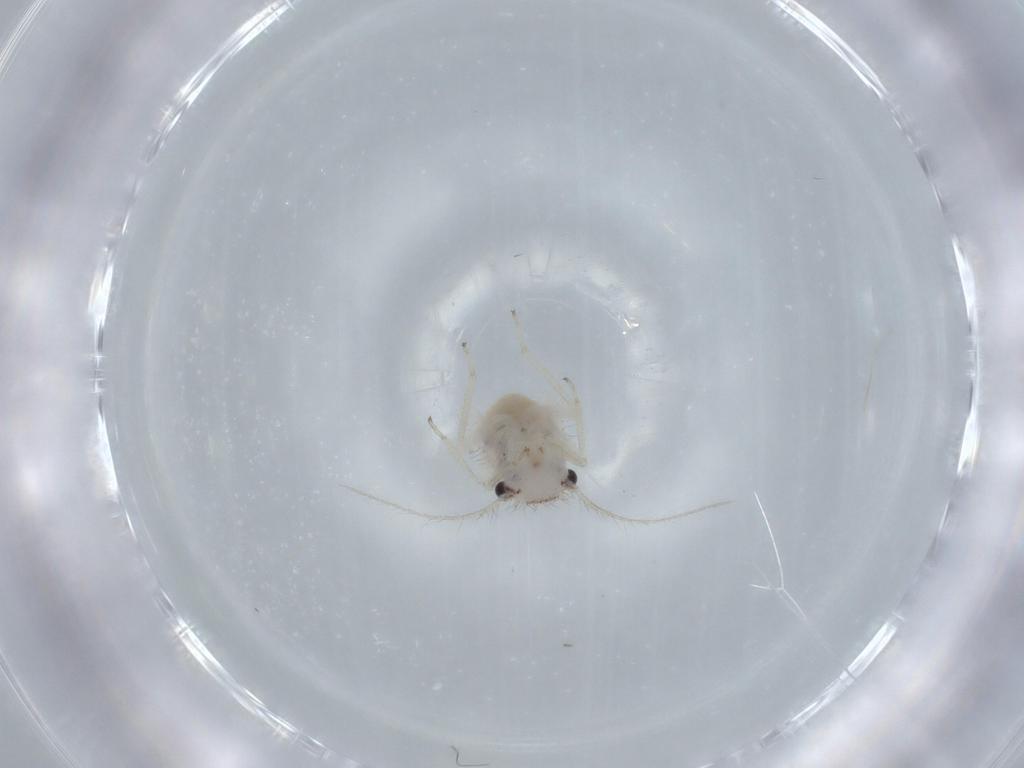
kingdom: Animalia
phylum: Arthropoda
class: Insecta
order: Psocodea
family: Pseudocaeciliidae
